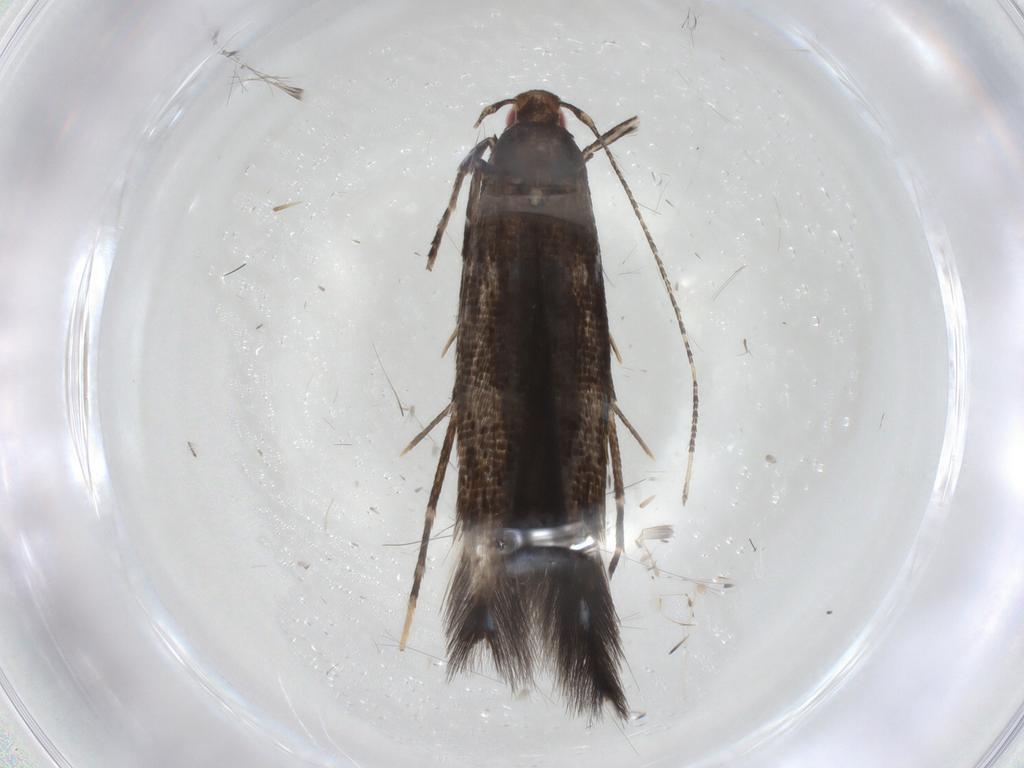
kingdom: Animalia
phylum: Arthropoda
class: Insecta
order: Lepidoptera
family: Cosmopterigidae
